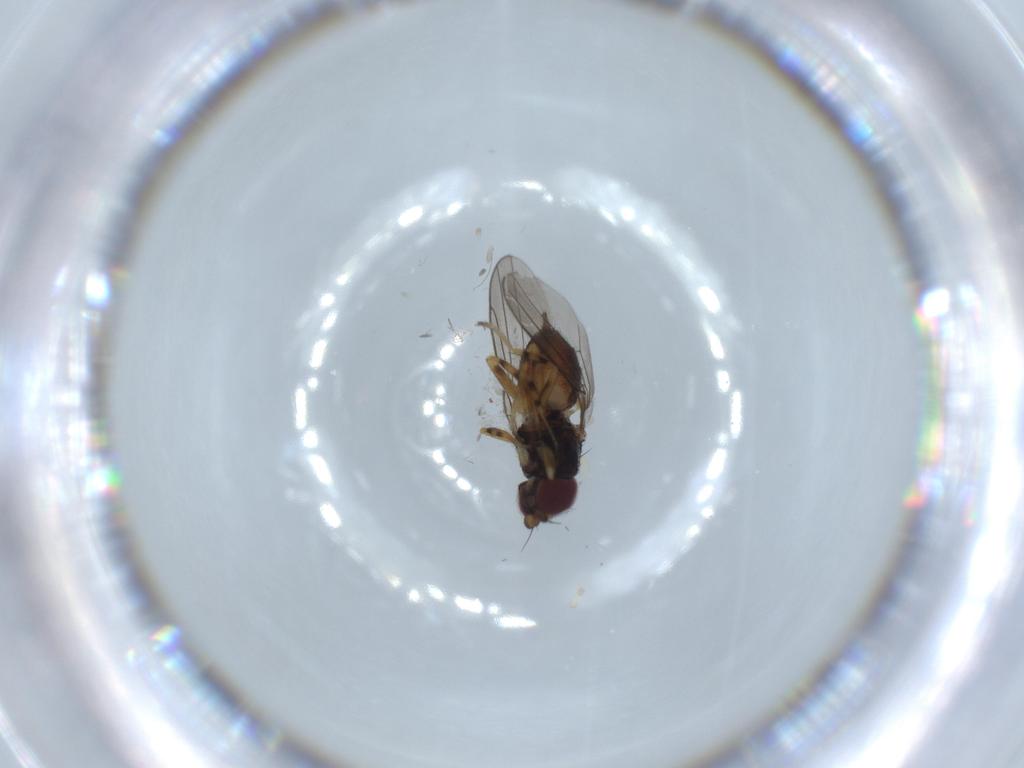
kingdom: Animalia
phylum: Arthropoda
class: Insecta
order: Diptera
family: Chloropidae
